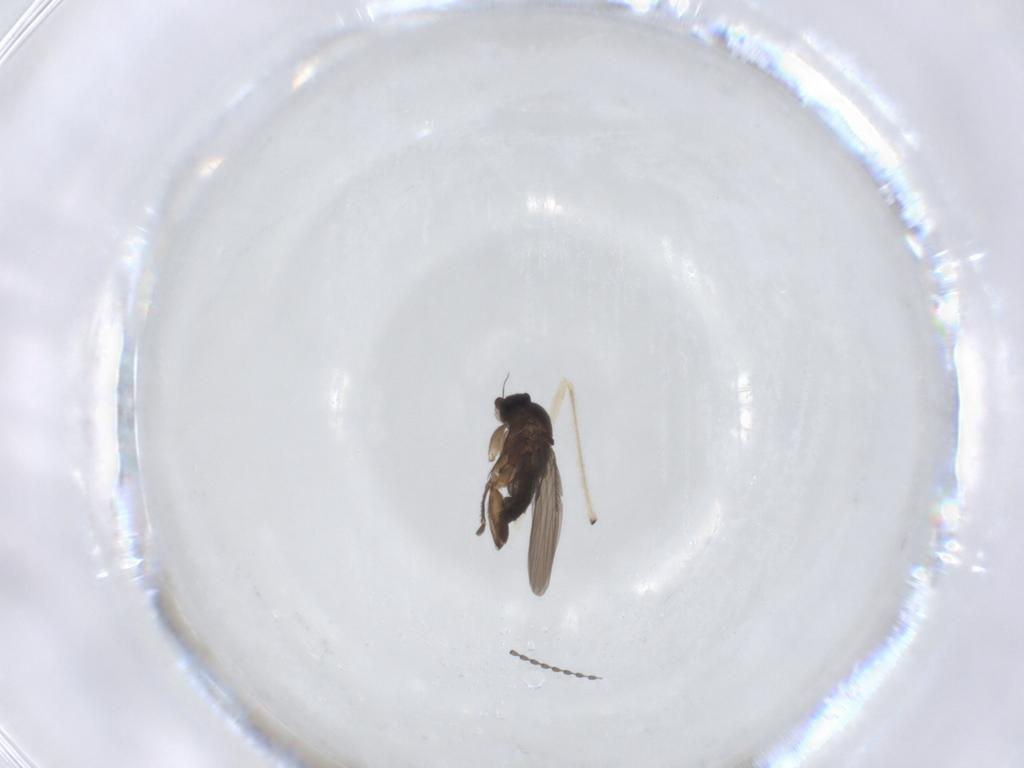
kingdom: Animalia
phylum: Arthropoda
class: Insecta
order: Diptera
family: Sciaridae
